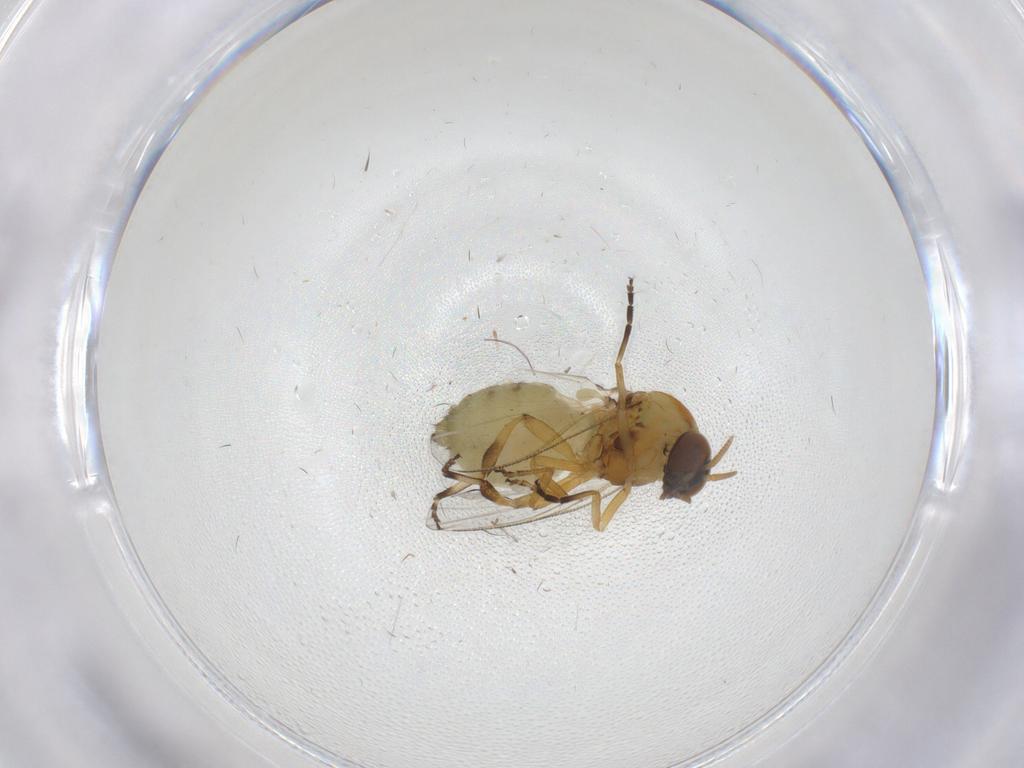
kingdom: Animalia
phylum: Arthropoda
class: Insecta
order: Diptera
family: Simuliidae
